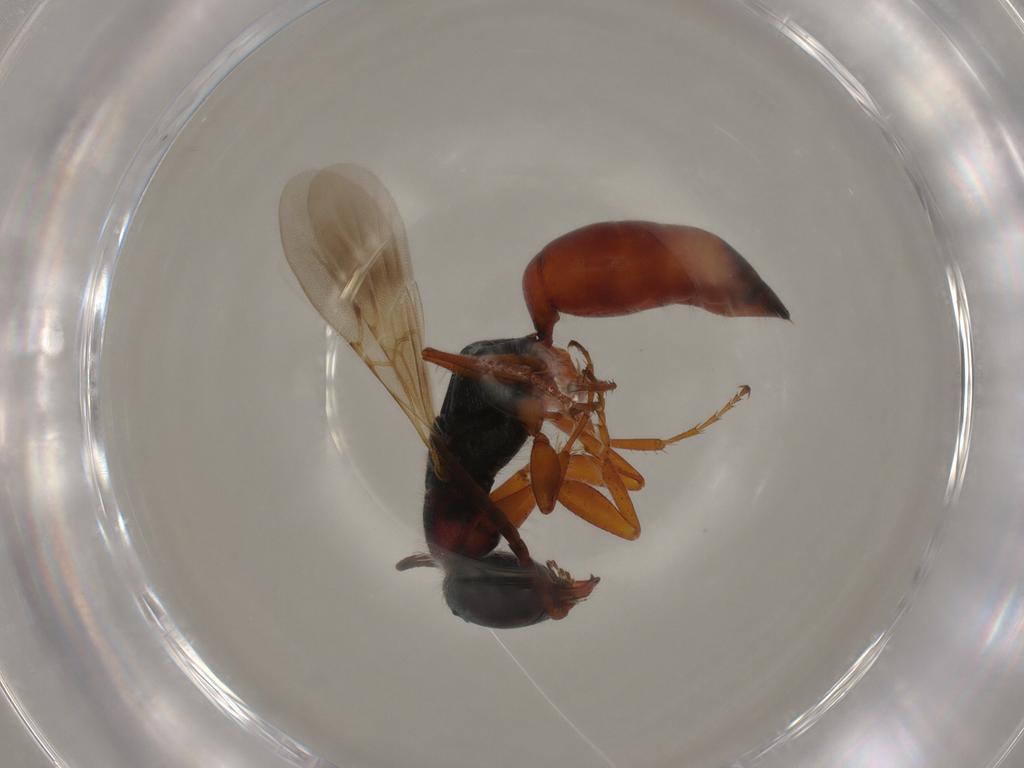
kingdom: Animalia
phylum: Arthropoda
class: Insecta
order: Hymenoptera
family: Bethylidae
